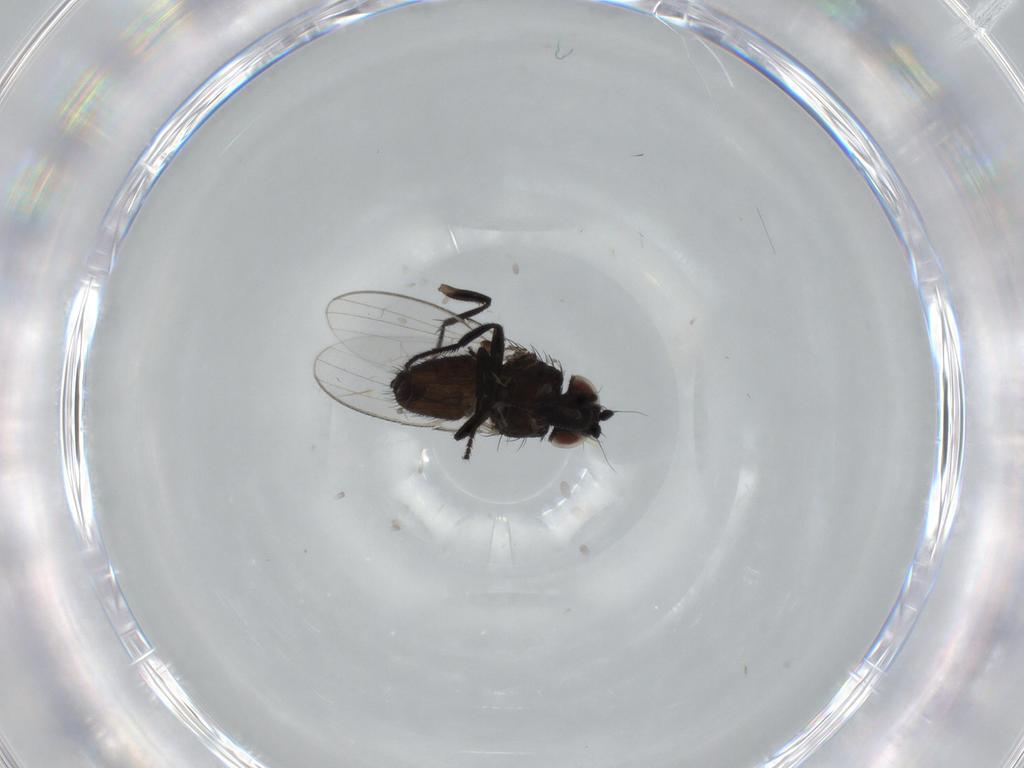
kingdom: Animalia
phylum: Arthropoda
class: Insecta
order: Diptera
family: Milichiidae
